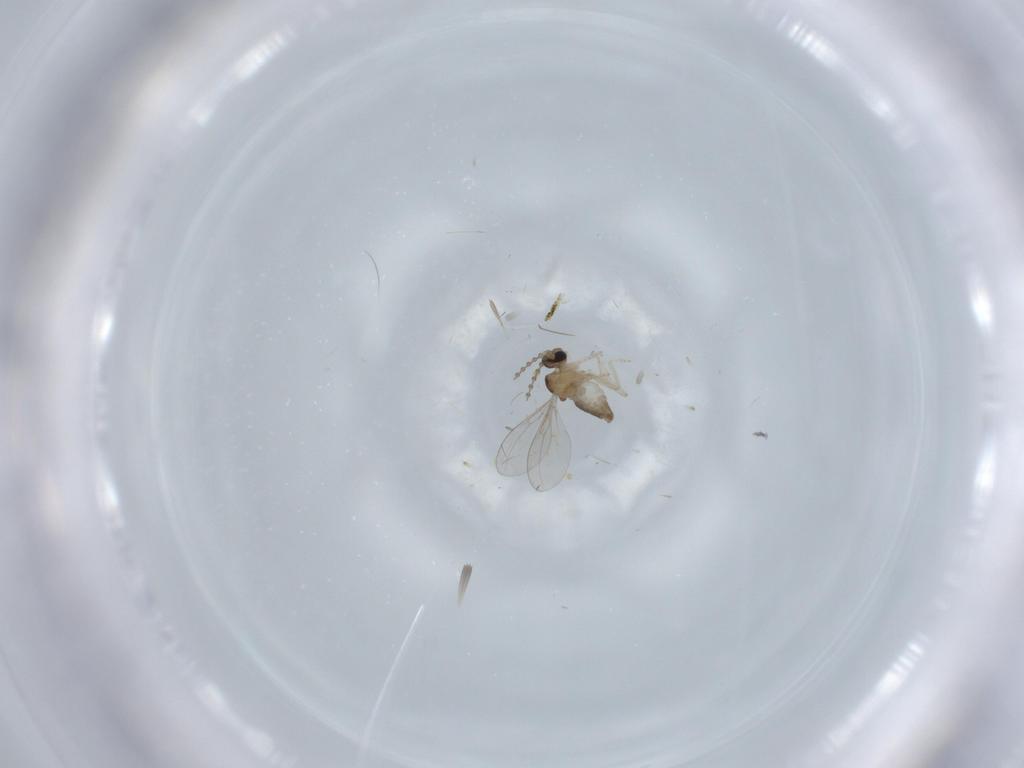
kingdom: Animalia
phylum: Arthropoda
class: Insecta
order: Diptera
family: Cecidomyiidae
